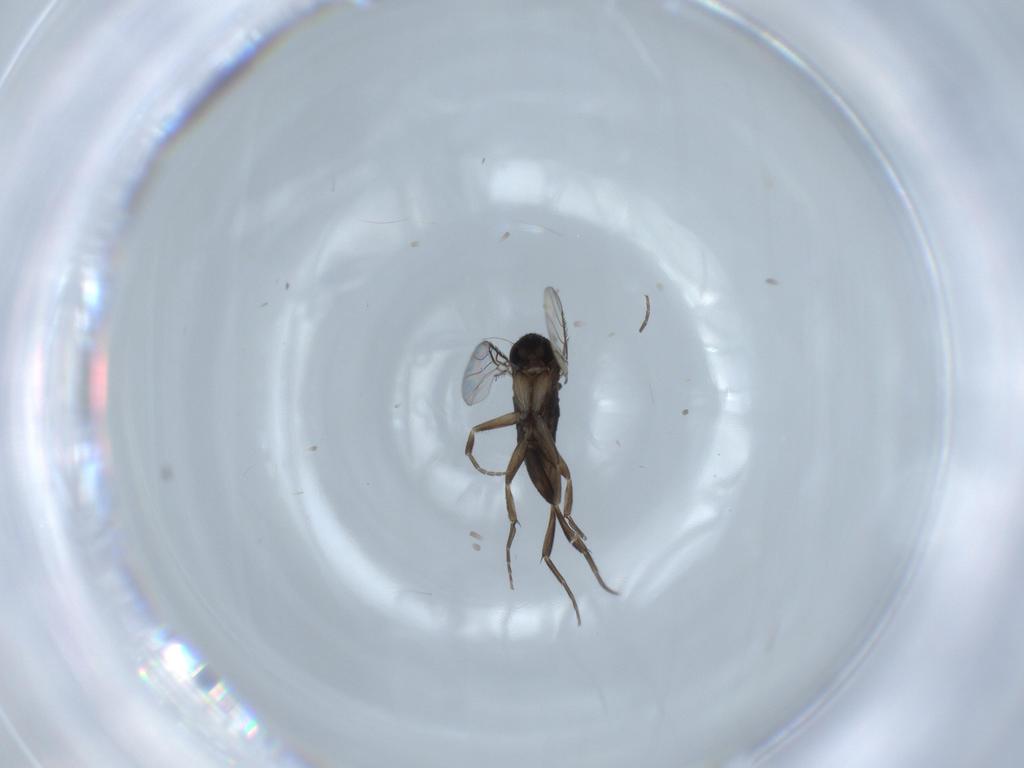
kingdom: Animalia
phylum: Arthropoda
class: Insecta
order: Diptera
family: Phoridae
